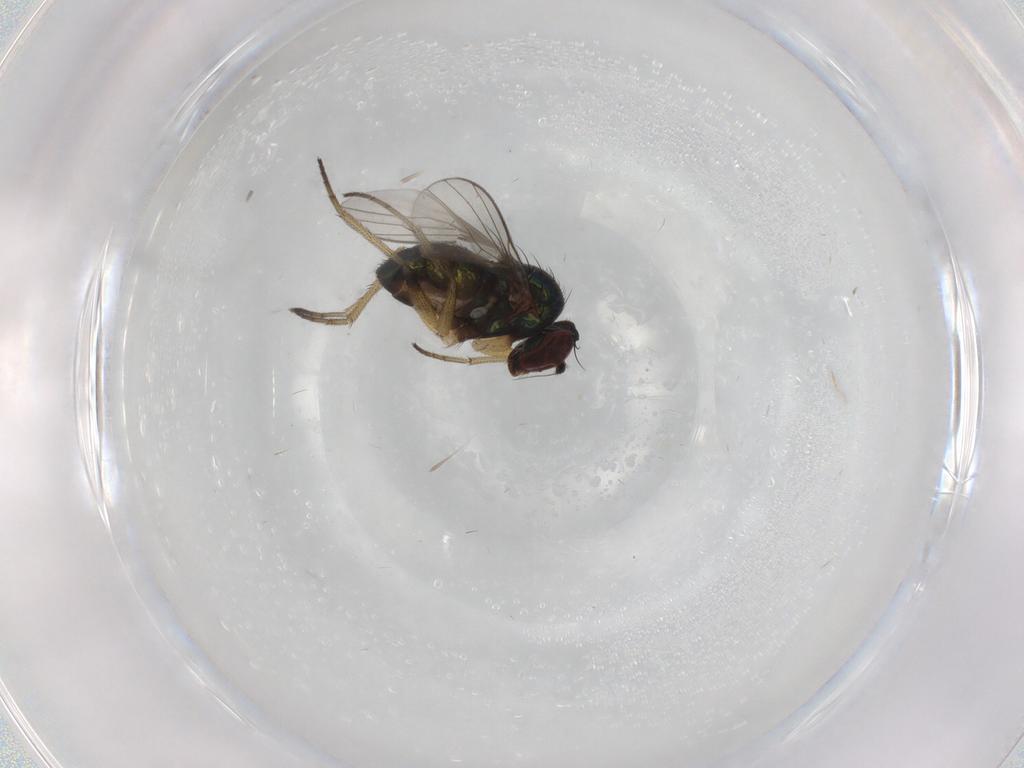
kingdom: Animalia
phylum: Arthropoda
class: Insecta
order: Diptera
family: Dolichopodidae
